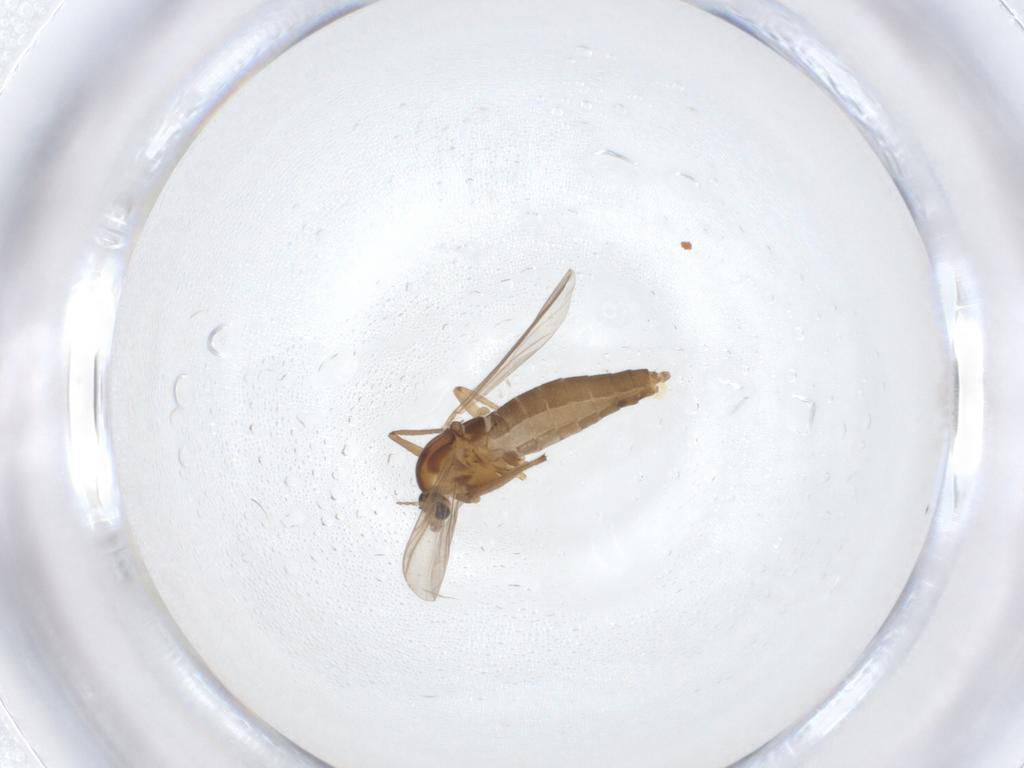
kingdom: Animalia
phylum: Arthropoda
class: Insecta
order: Diptera
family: Chironomidae
